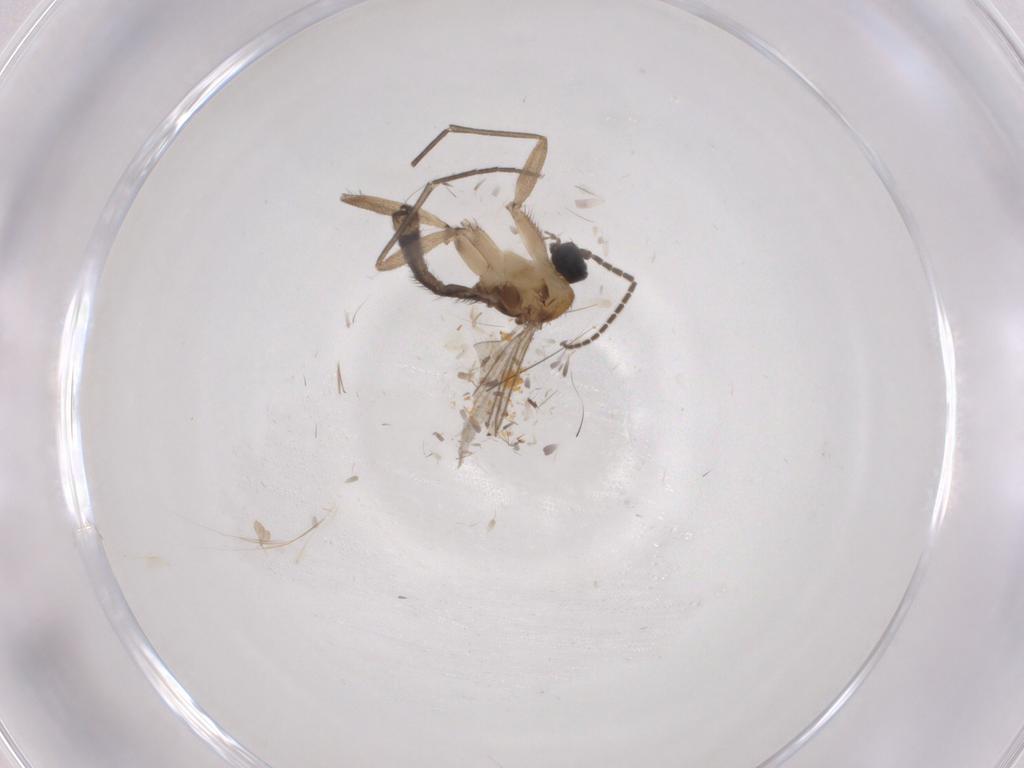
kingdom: Animalia
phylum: Arthropoda
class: Insecta
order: Diptera
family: Sciaridae
